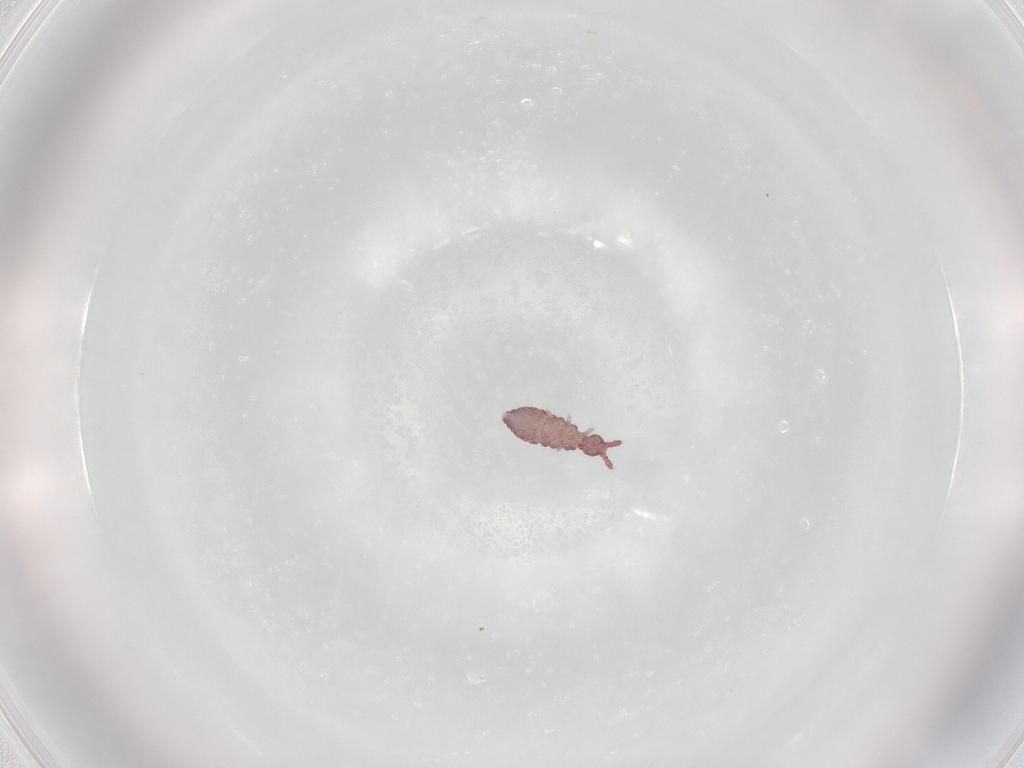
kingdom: Animalia
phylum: Arthropoda
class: Collembola
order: Poduromorpha
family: Hypogastruridae
